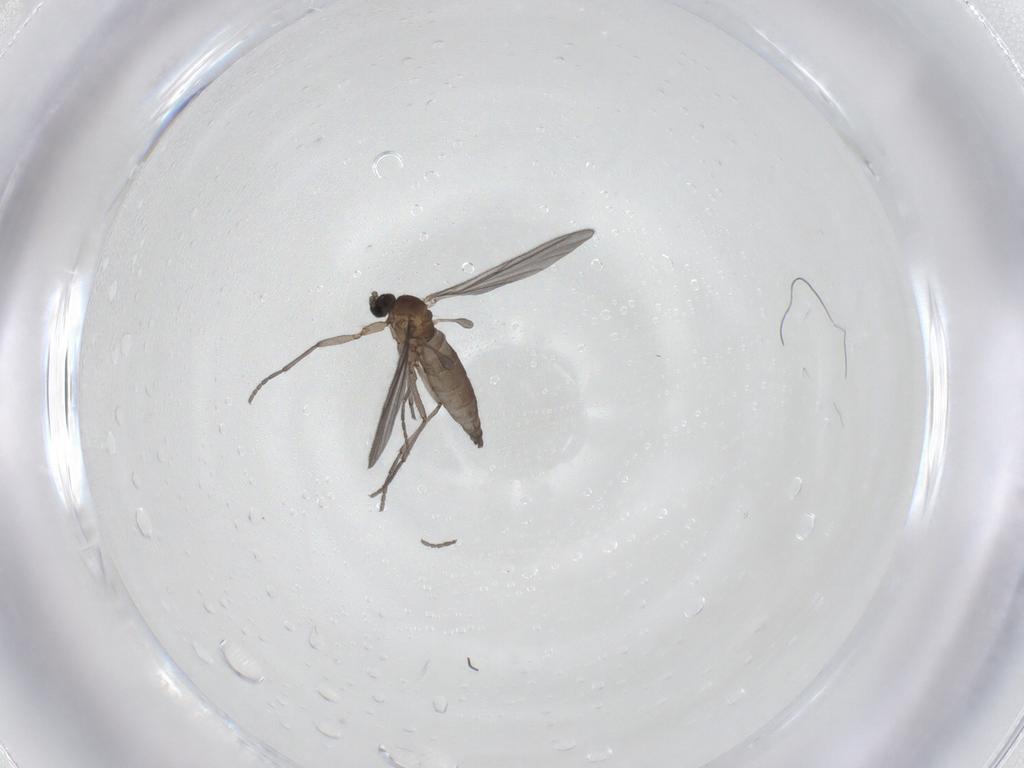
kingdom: Animalia
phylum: Arthropoda
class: Insecta
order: Diptera
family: Sciaridae
